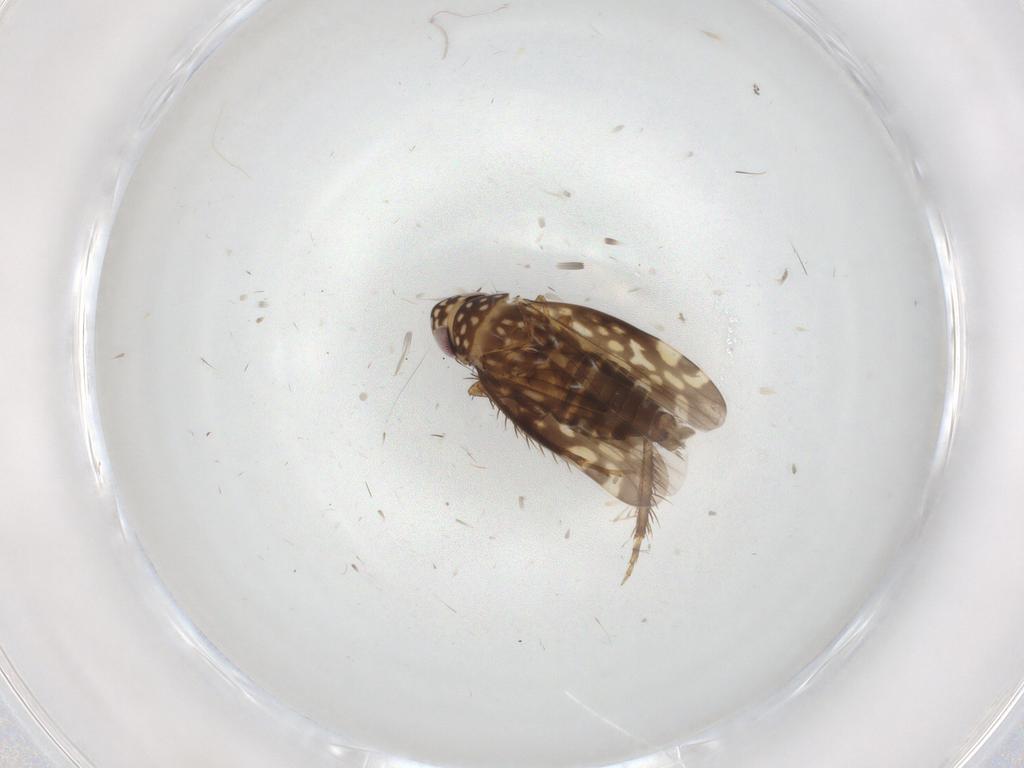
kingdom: Animalia
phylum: Arthropoda
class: Insecta
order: Hemiptera
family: Cicadellidae
